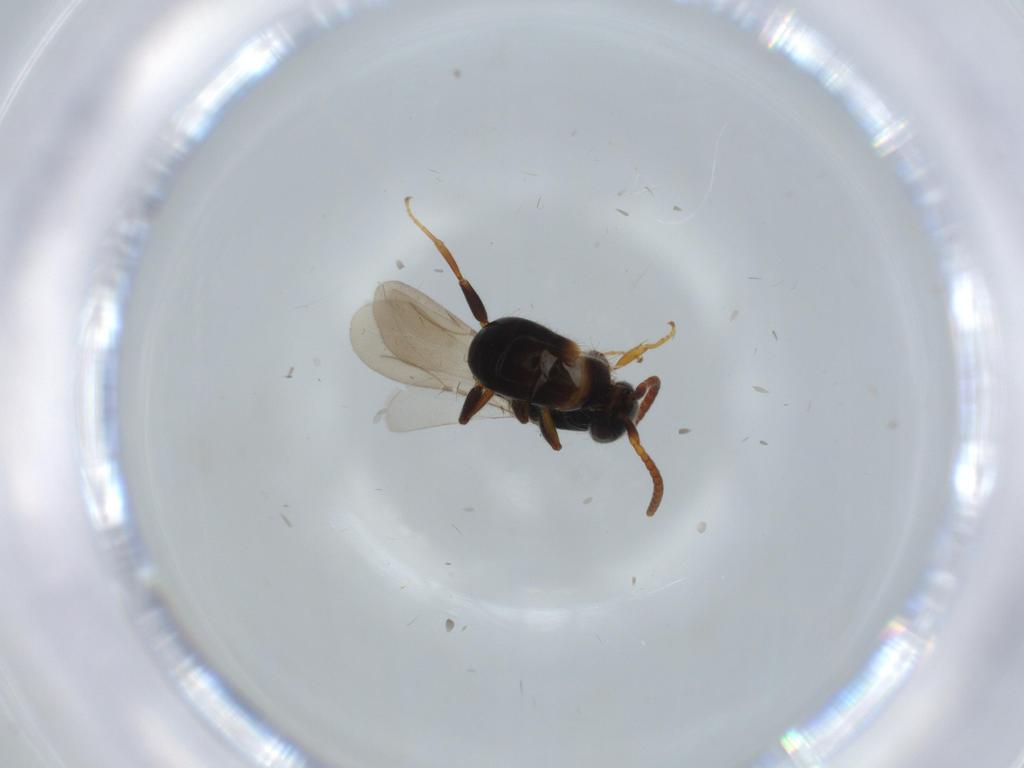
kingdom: Animalia
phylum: Arthropoda
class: Insecta
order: Hymenoptera
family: Bethylidae
